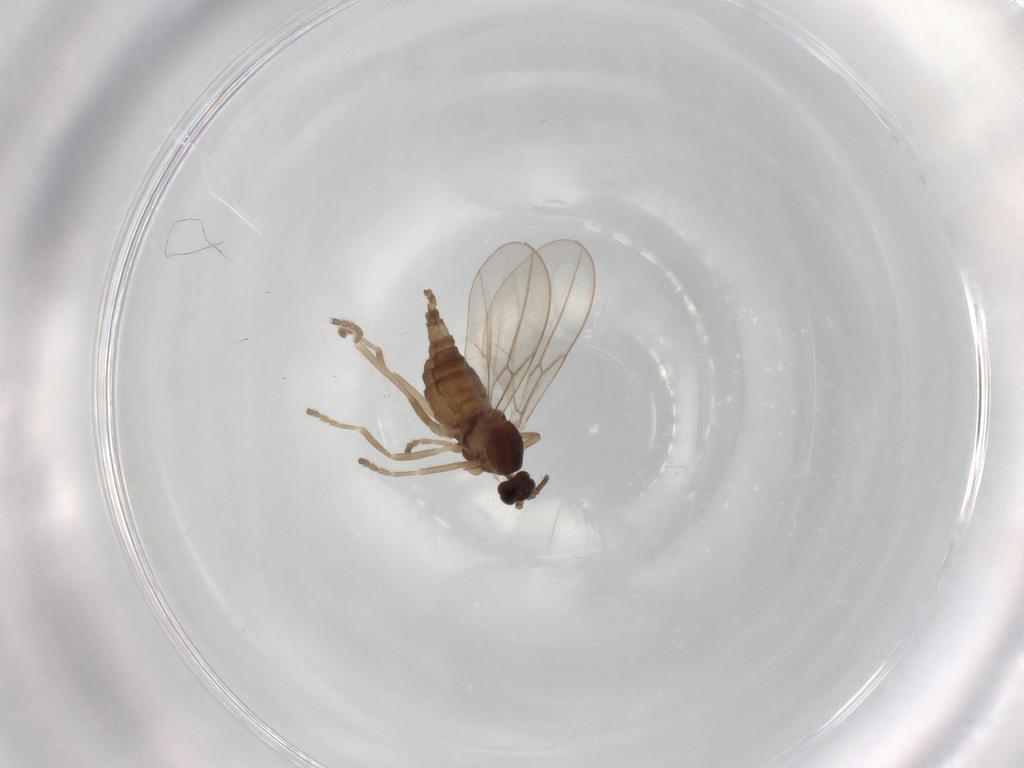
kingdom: Animalia
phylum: Arthropoda
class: Insecta
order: Diptera
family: Cecidomyiidae
